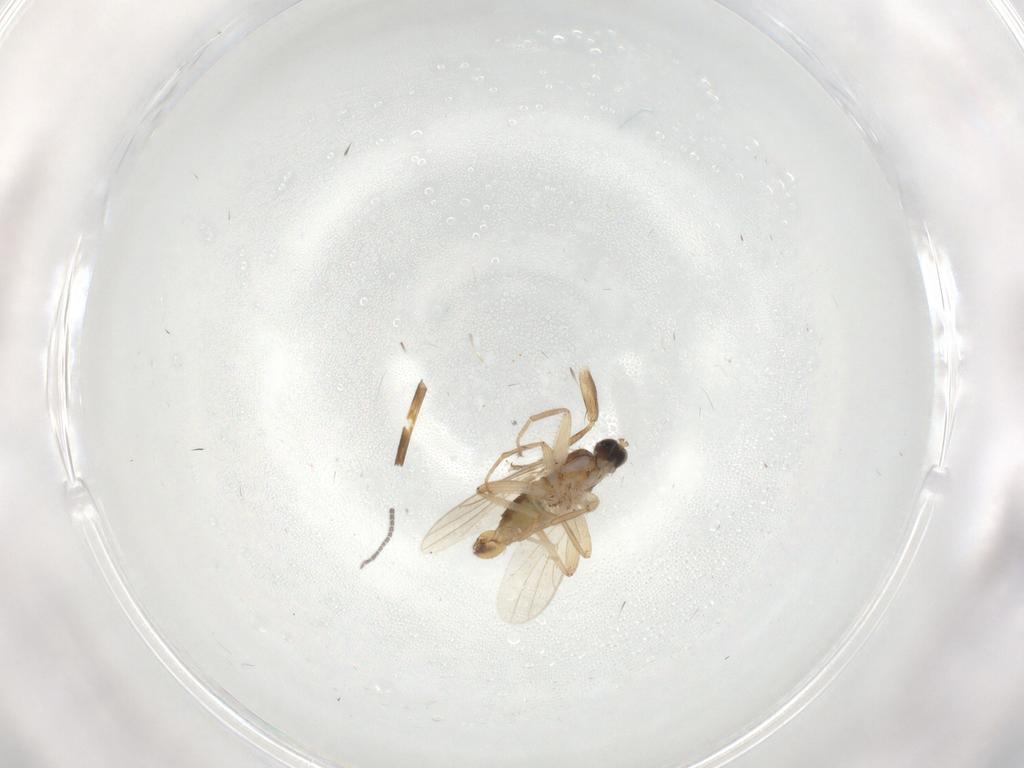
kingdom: Animalia
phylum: Arthropoda
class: Insecta
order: Diptera
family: Hybotidae
